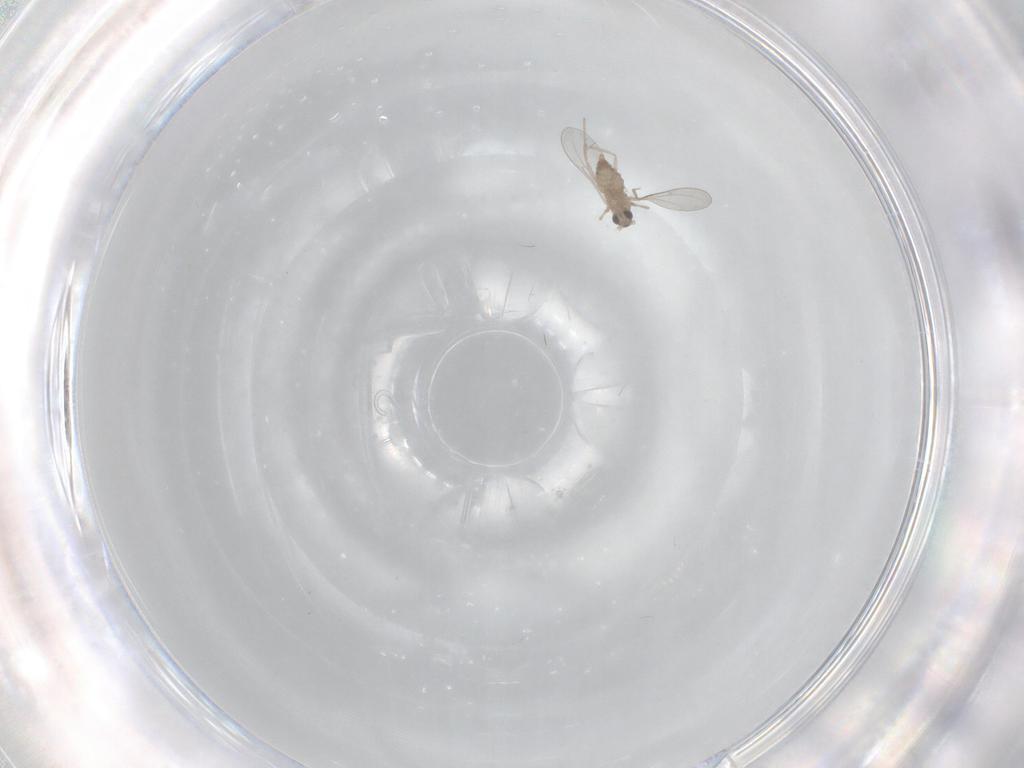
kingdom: Animalia
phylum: Arthropoda
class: Insecta
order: Diptera
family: Cecidomyiidae
